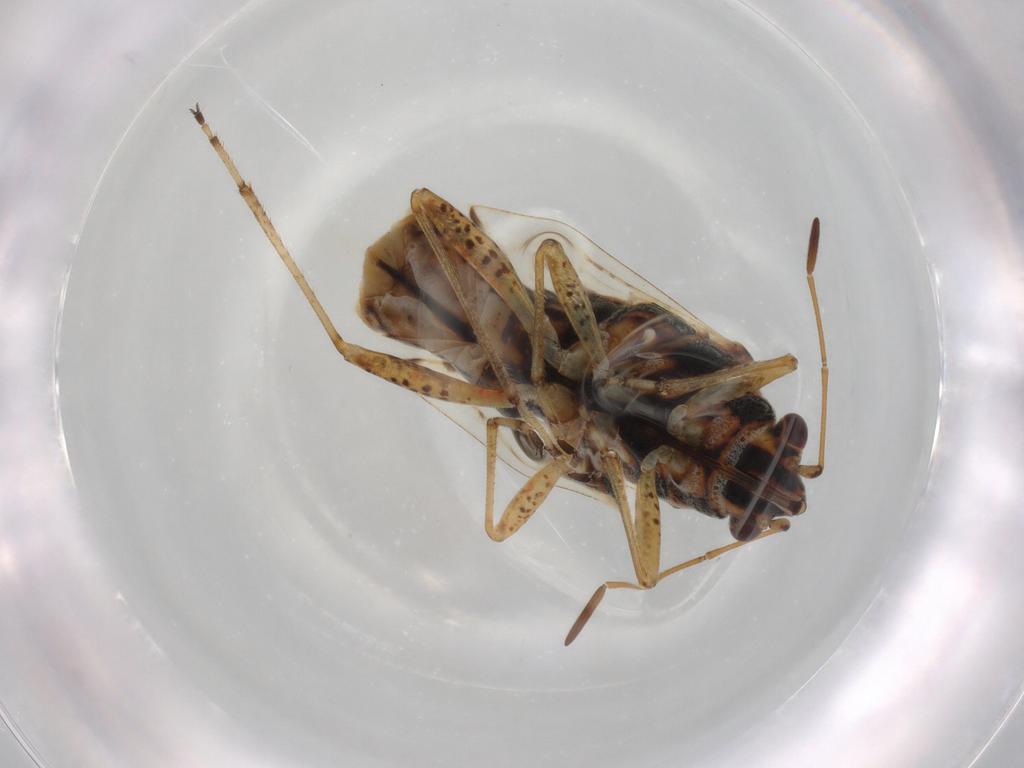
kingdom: Animalia
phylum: Arthropoda
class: Insecta
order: Hemiptera
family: Lygaeidae
